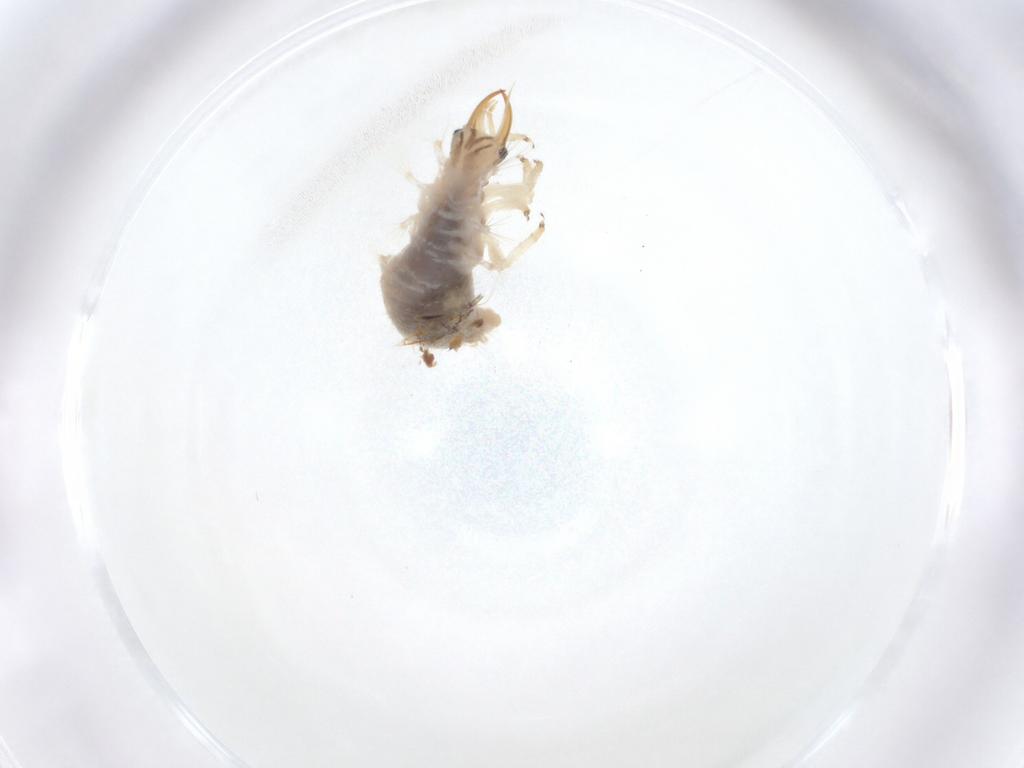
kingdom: Animalia
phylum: Arthropoda
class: Insecta
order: Neuroptera
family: Chrysopidae
